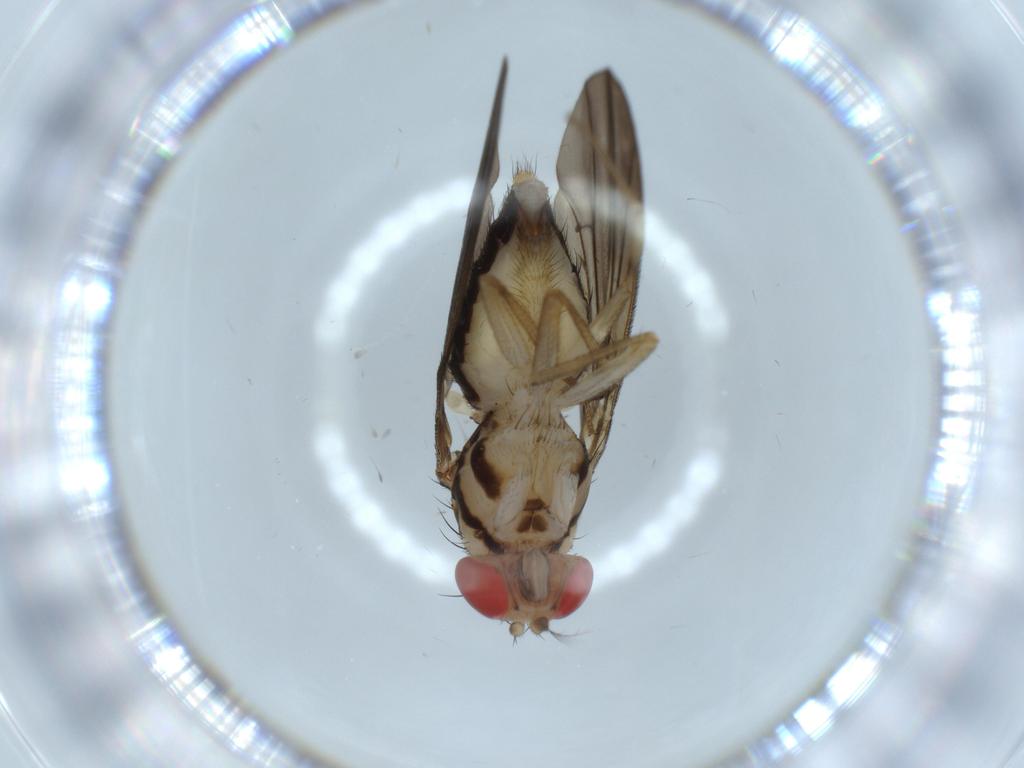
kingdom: Animalia
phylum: Arthropoda
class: Insecta
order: Diptera
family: Drosophilidae
